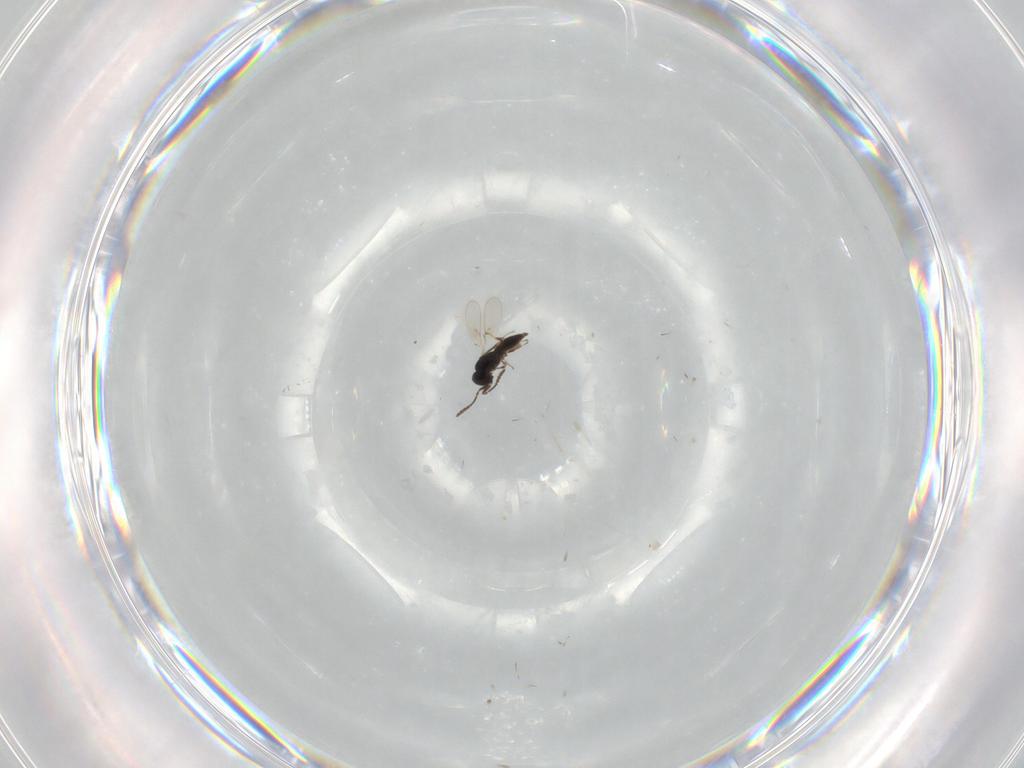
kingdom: Animalia
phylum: Arthropoda
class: Insecta
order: Hymenoptera
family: Scelionidae
